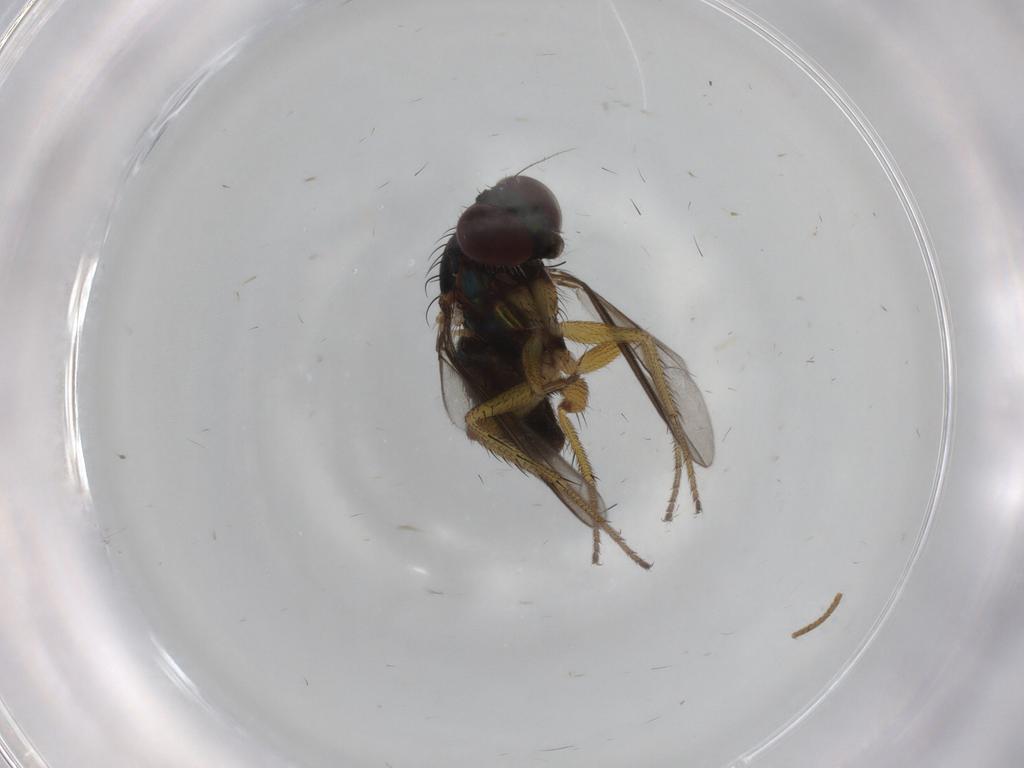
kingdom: Animalia
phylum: Arthropoda
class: Insecta
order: Diptera
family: Dolichopodidae
